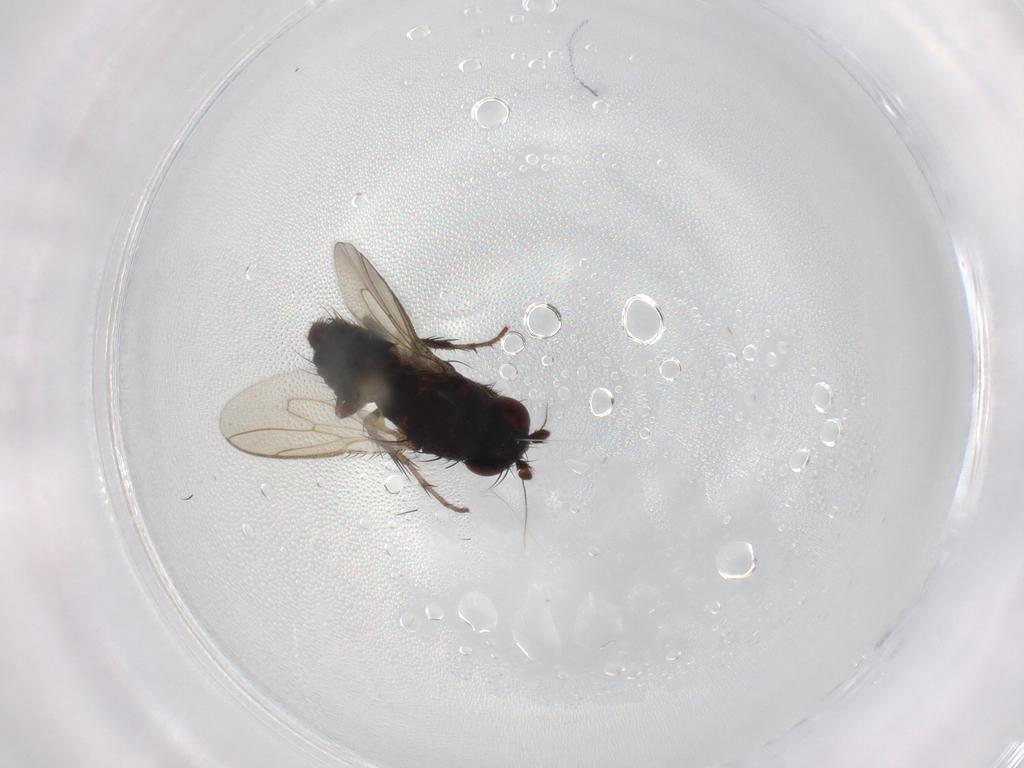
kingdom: Animalia
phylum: Arthropoda
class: Insecta
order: Diptera
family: Sphaeroceridae
